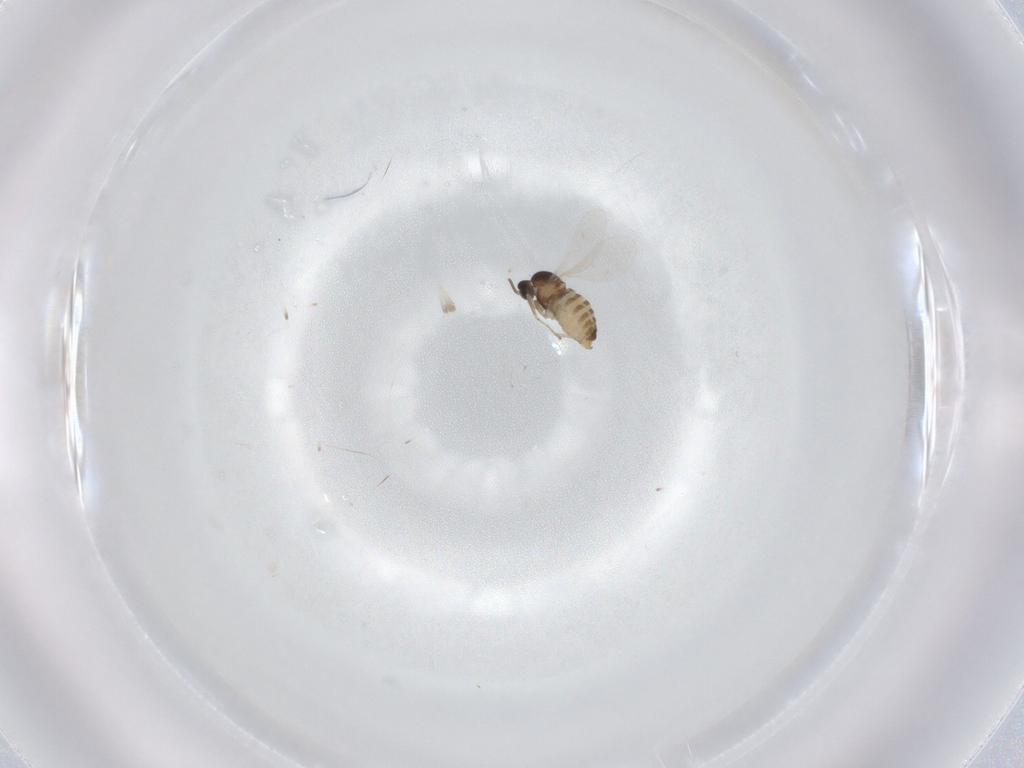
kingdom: Animalia
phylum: Arthropoda
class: Insecta
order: Diptera
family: Cecidomyiidae
